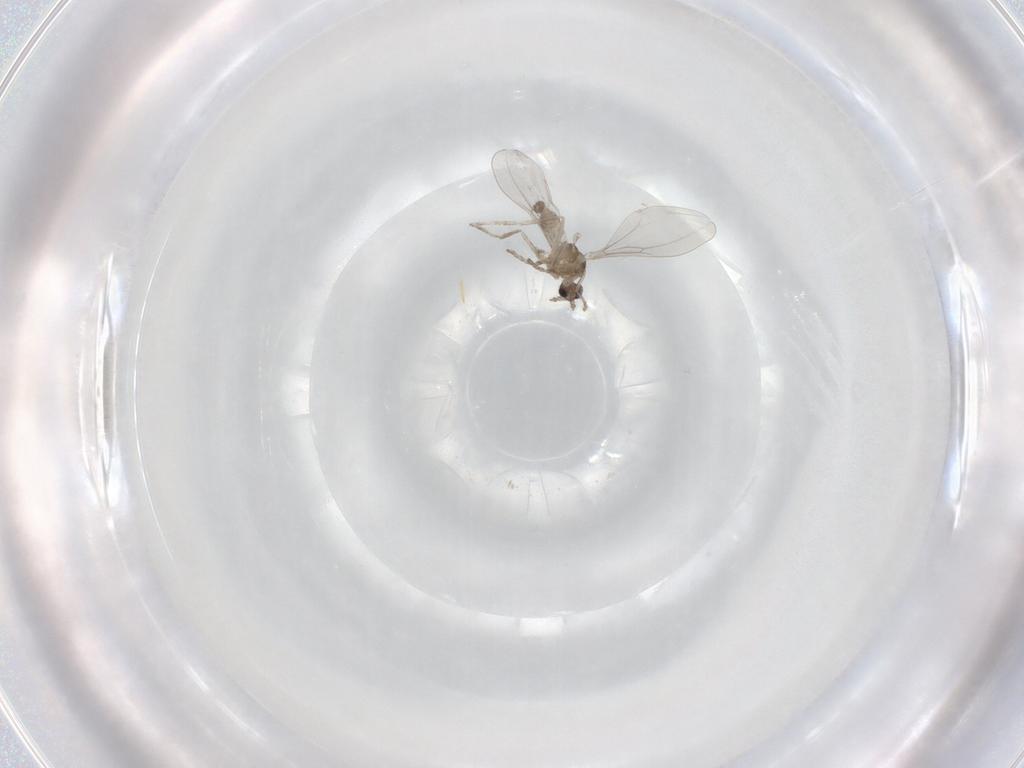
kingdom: Animalia
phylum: Arthropoda
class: Insecta
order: Diptera
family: Cecidomyiidae
